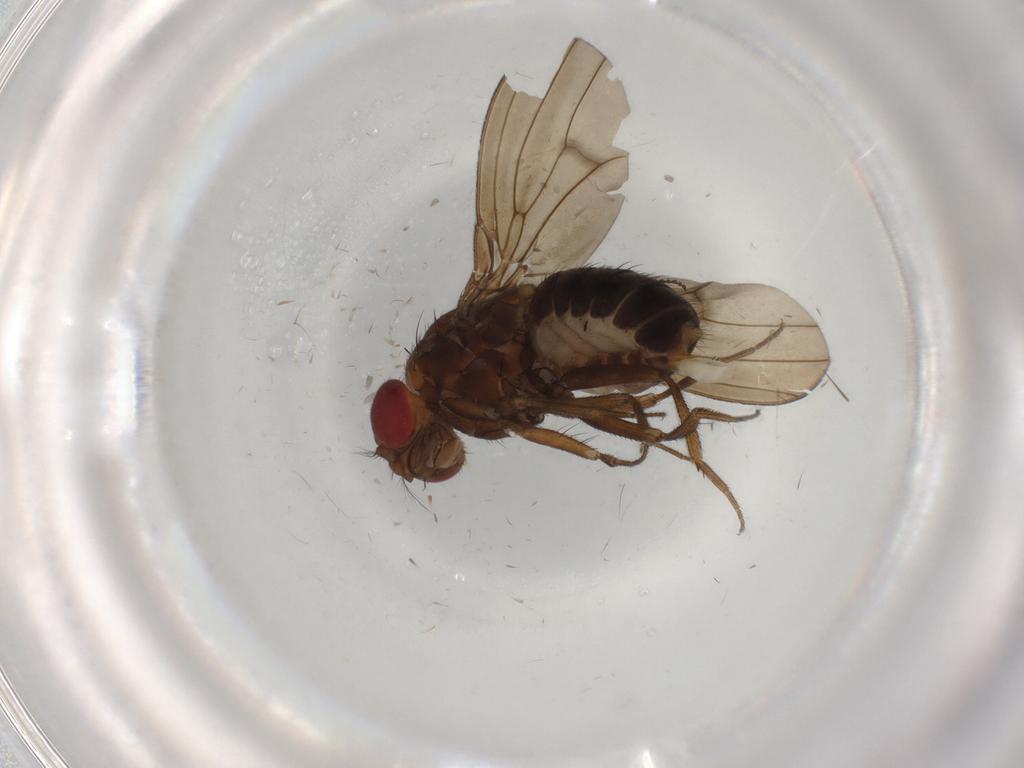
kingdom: Animalia
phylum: Arthropoda
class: Insecta
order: Diptera
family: Drosophilidae
